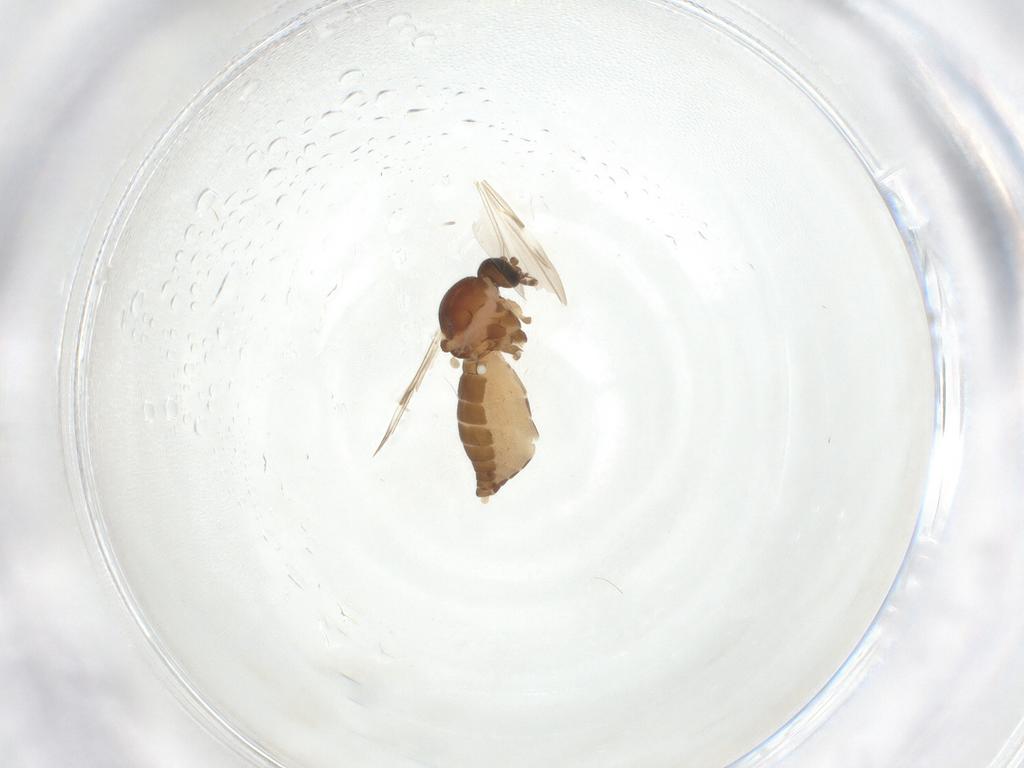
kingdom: Animalia
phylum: Arthropoda
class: Insecta
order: Diptera
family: Ceratopogonidae
